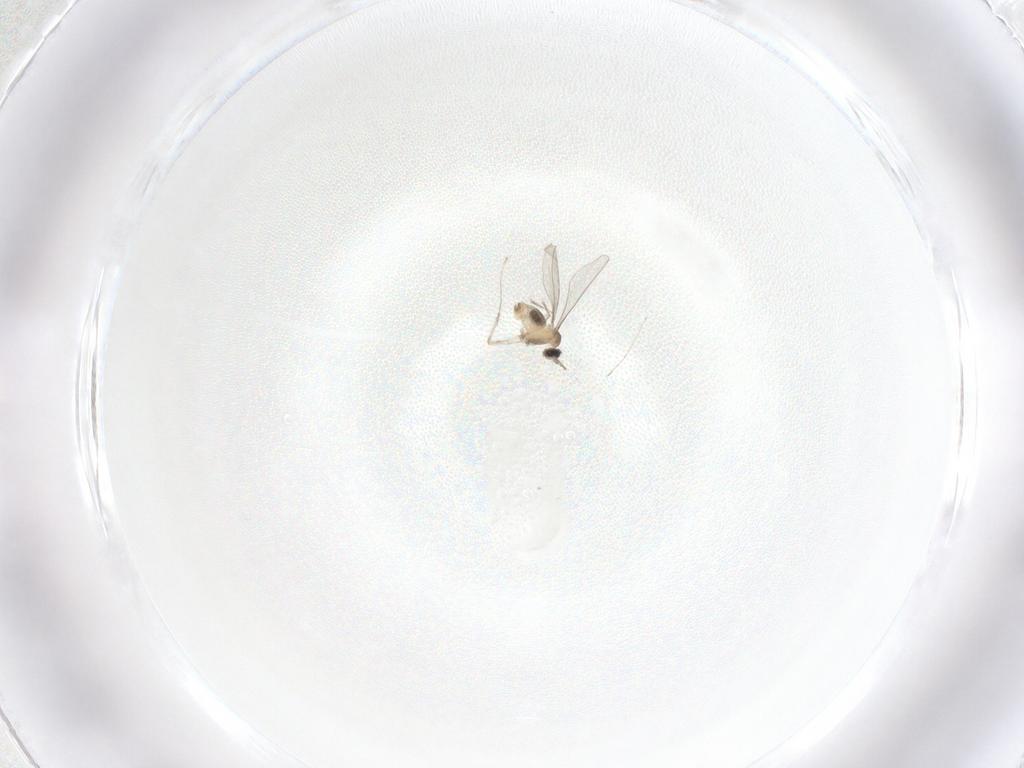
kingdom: Animalia
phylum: Arthropoda
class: Insecta
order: Diptera
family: Cecidomyiidae
